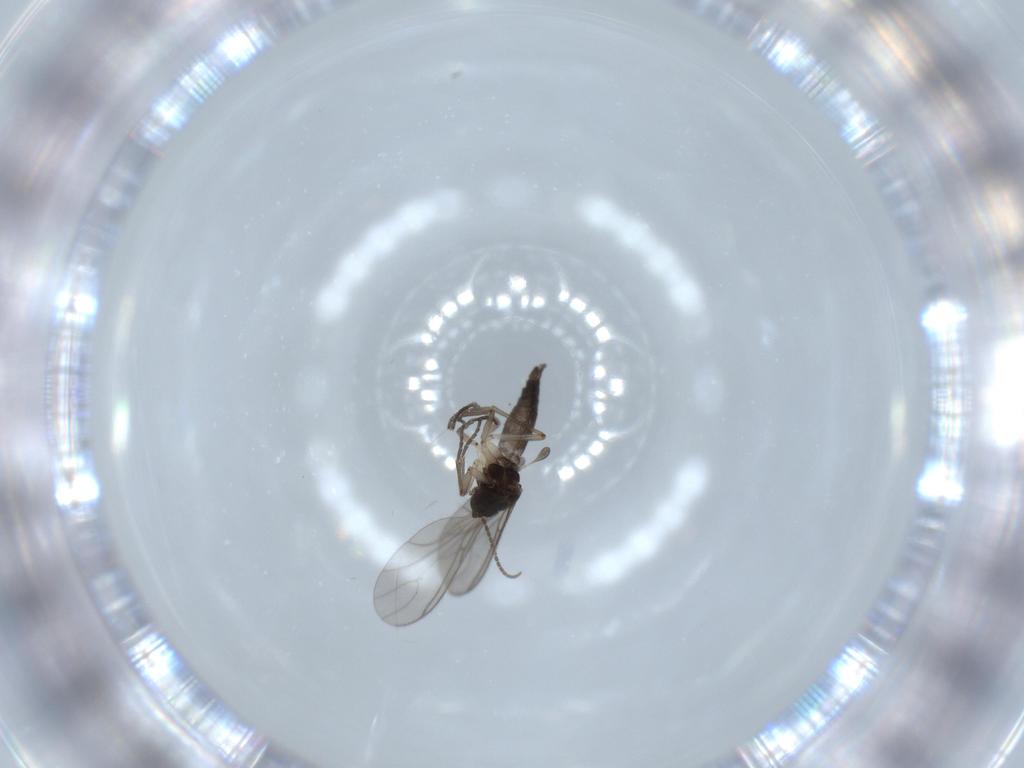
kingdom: Animalia
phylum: Arthropoda
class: Insecta
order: Diptera
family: Sciaridae
